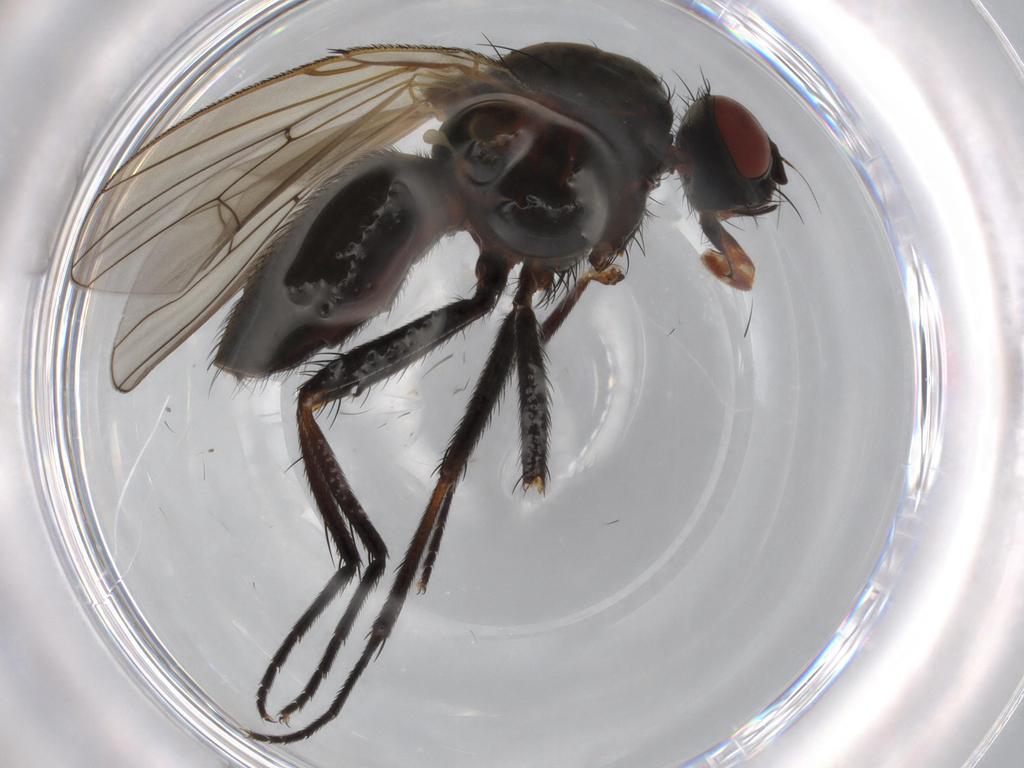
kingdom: Animalia
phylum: Arthropoda
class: Insecta
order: Diptera
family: Anthomyiidae
